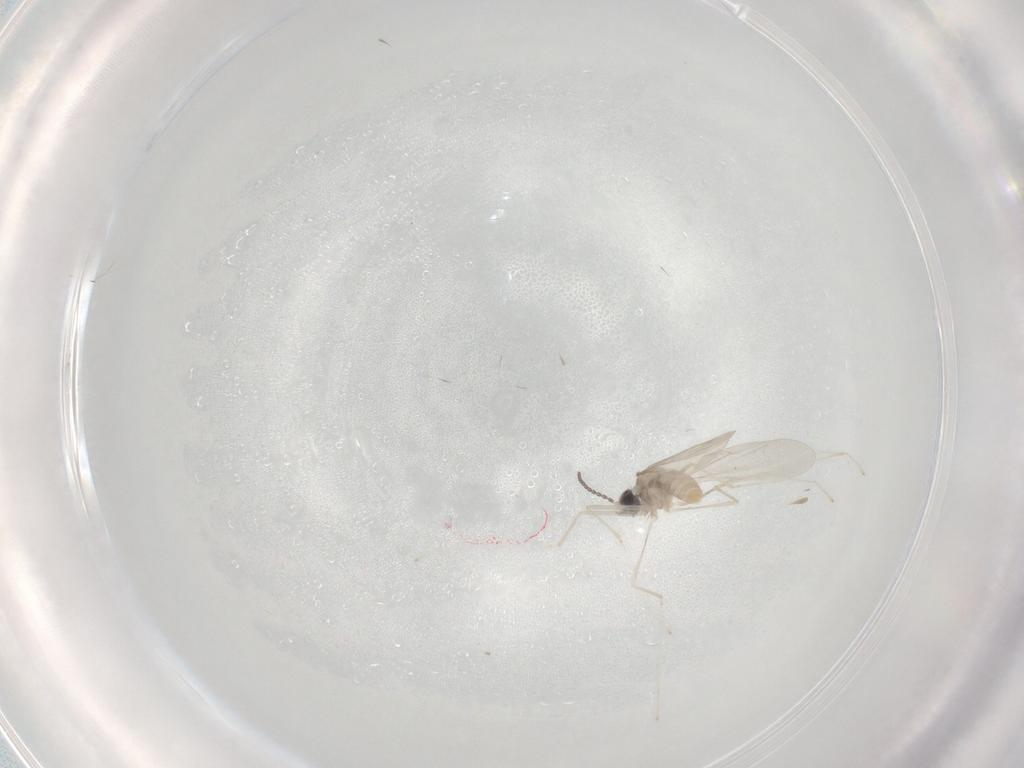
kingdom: Animalia
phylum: Arthropoda
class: Insecta
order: Diptera
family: Cecidomyiidae
